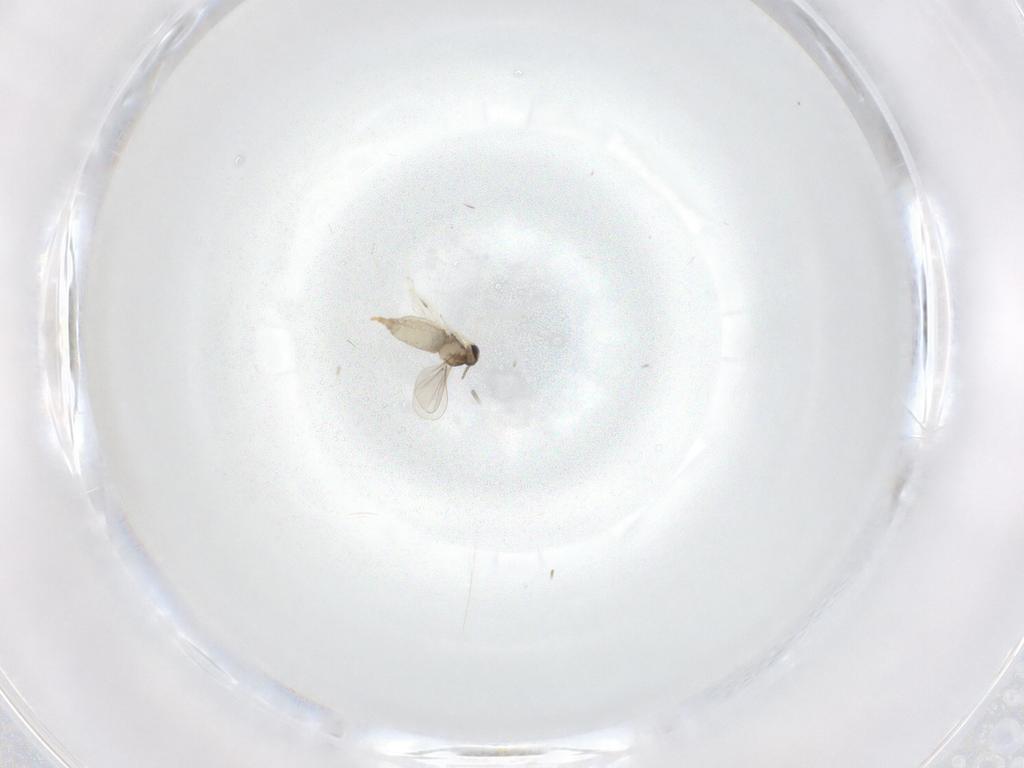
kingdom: Animalia
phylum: Arthropoda
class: Insecta
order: Diptera
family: Cecidomyiidae
